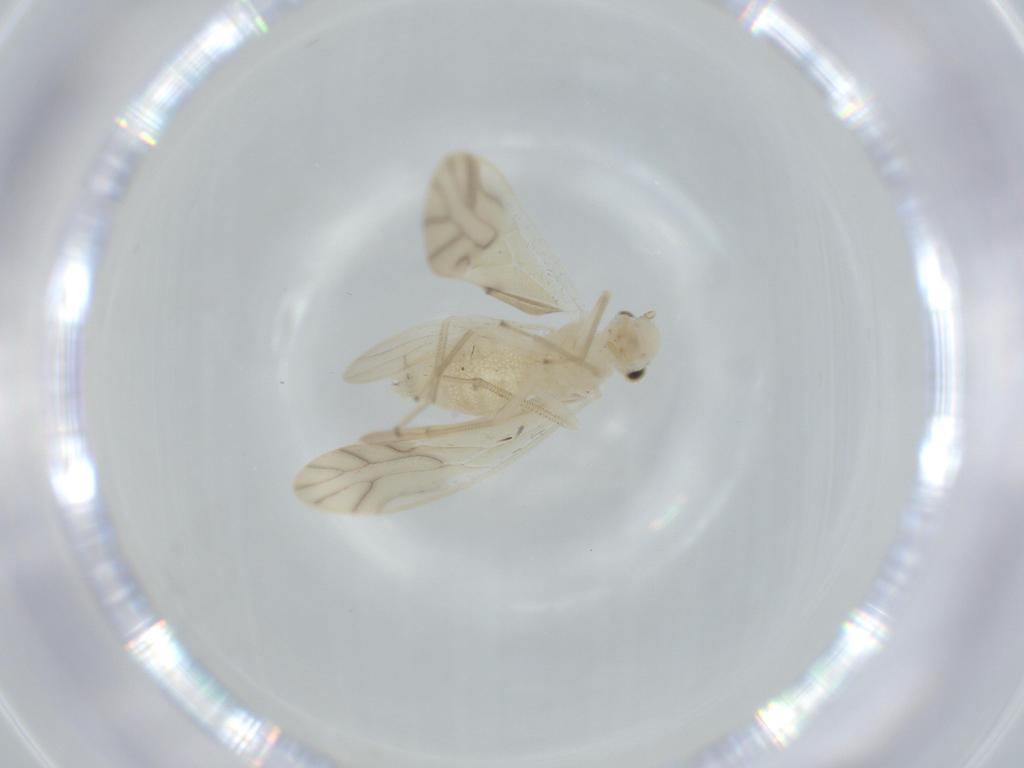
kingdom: Animalia
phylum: Arthropoda
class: Insecta
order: Psocodea
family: Caeciliusidae
